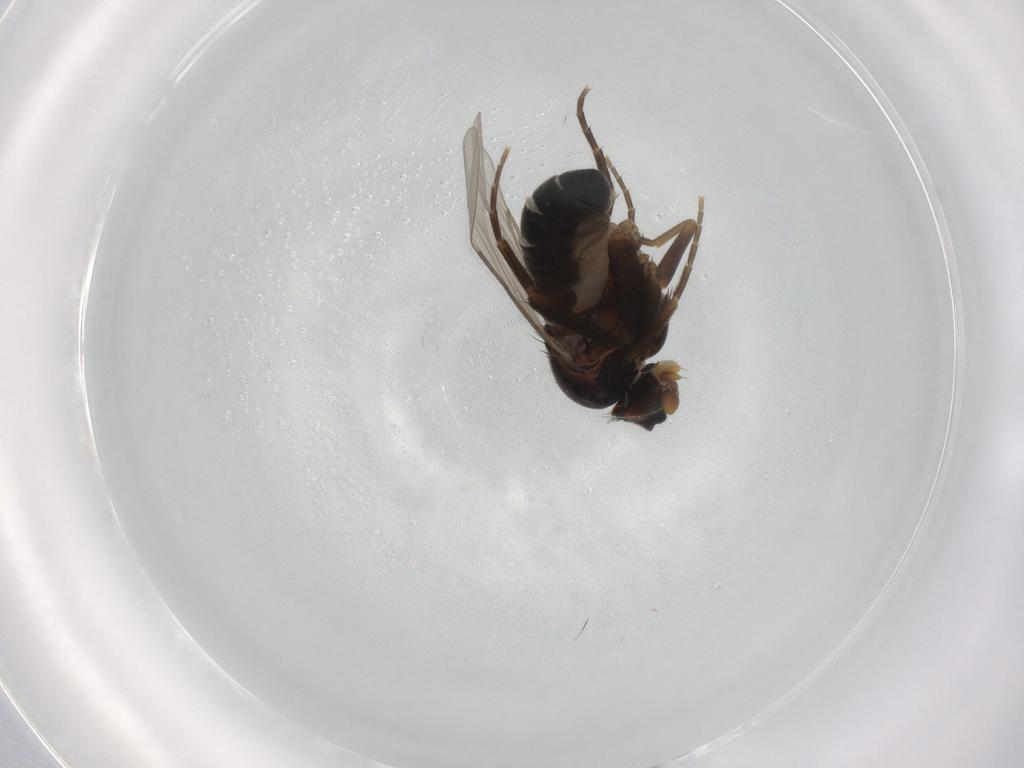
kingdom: Animalia
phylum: Arthropoda
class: Insecta
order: Diptera
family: Phoridae
